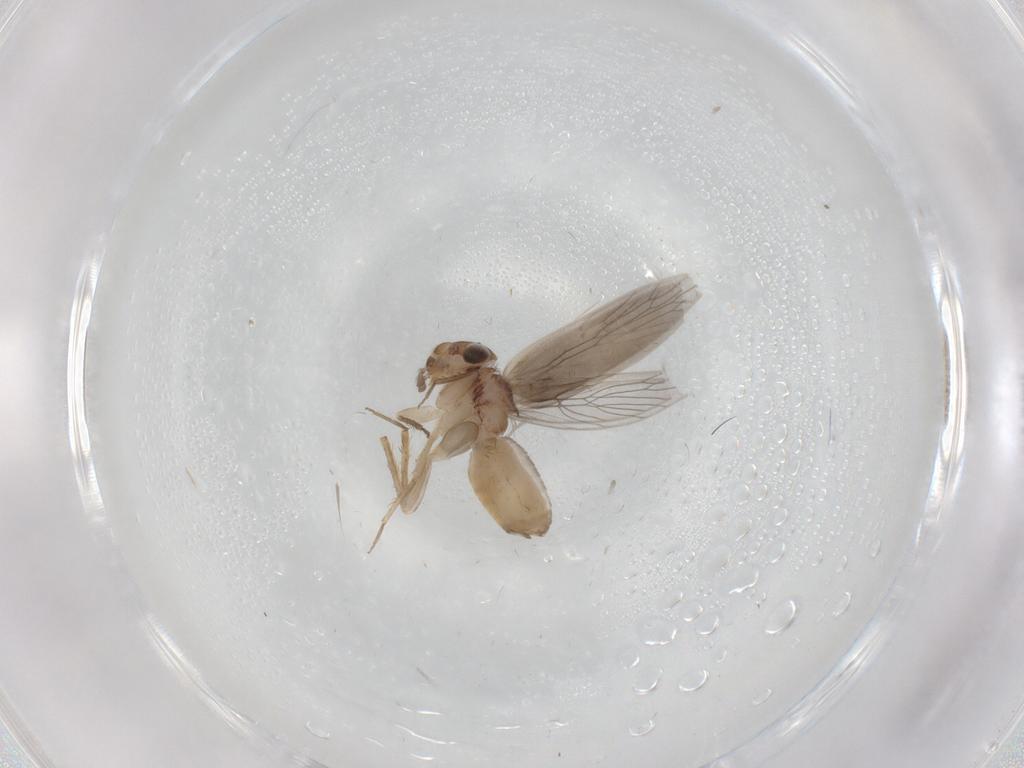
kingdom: Animalia
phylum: Arthropoda
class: Insecta
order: Psocodea
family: Lepidopsocidae
